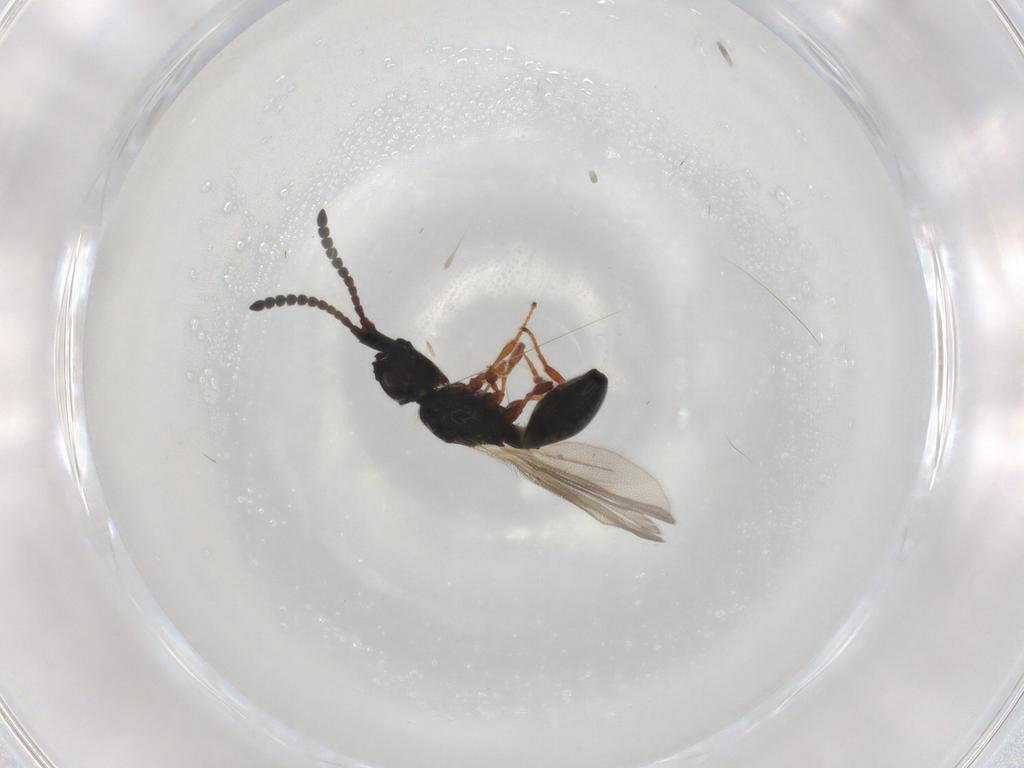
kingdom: Animalia
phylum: Arthropoda
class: Insecta
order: Hymenoptera
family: Diapriidae
